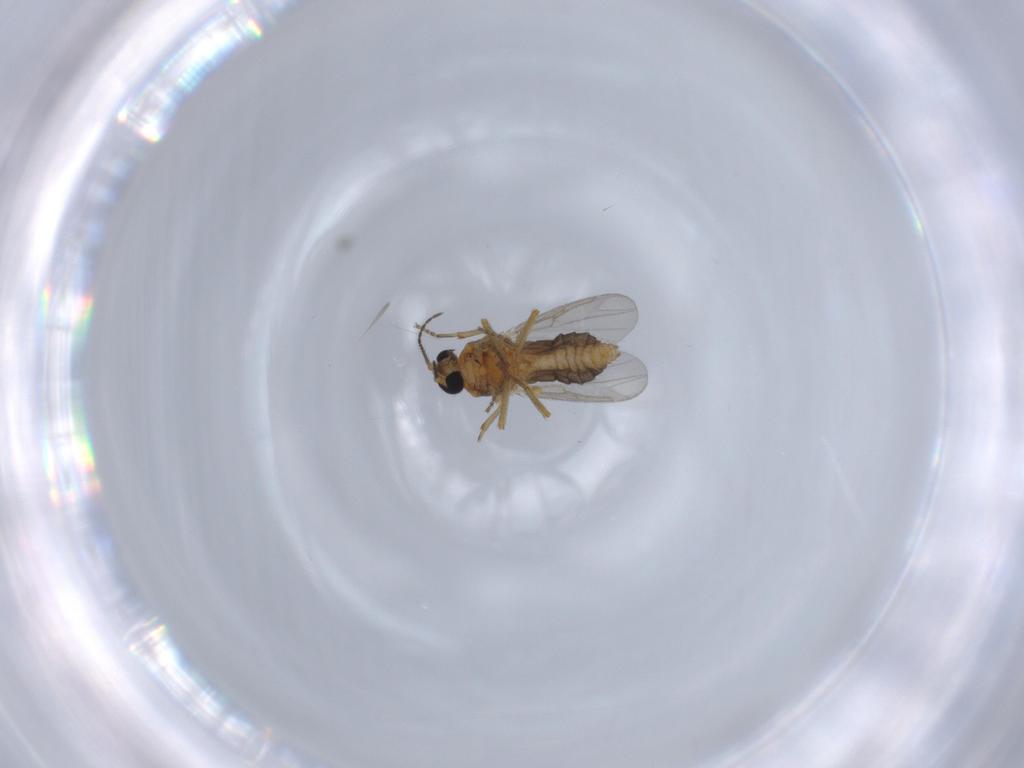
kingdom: Animalia
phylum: Arthropoda
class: Insecta
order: Diptera
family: Ceratopogonidae
